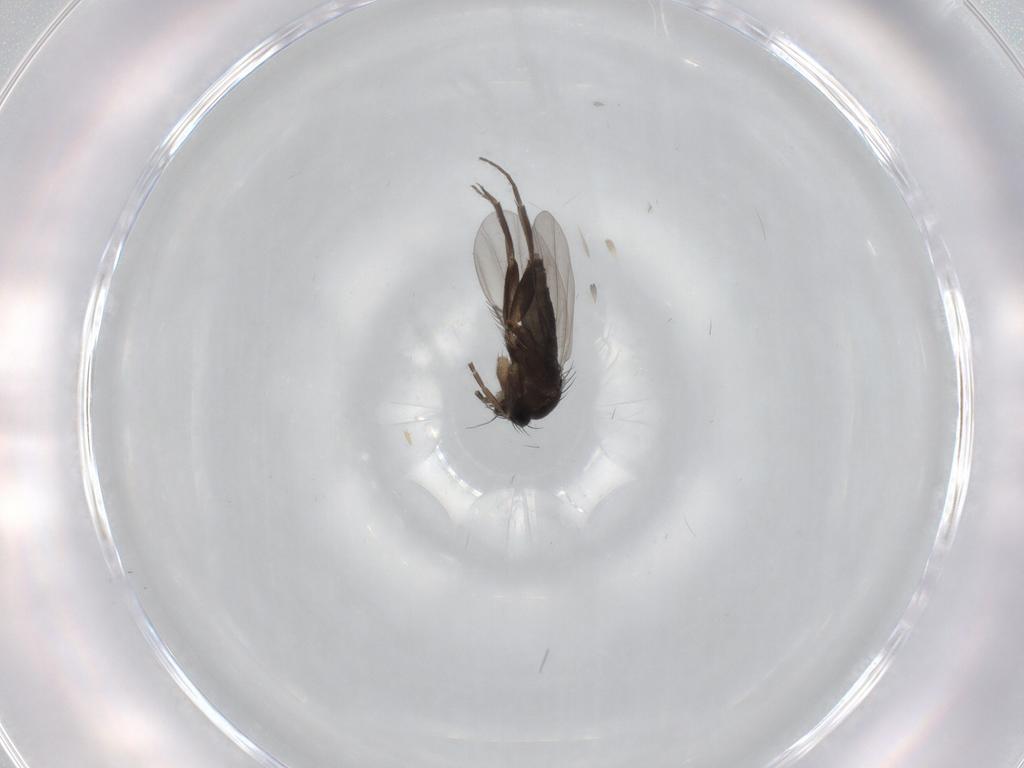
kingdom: Animalia
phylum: Arthropoda
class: Insecta
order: Diptera
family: Phoridae
